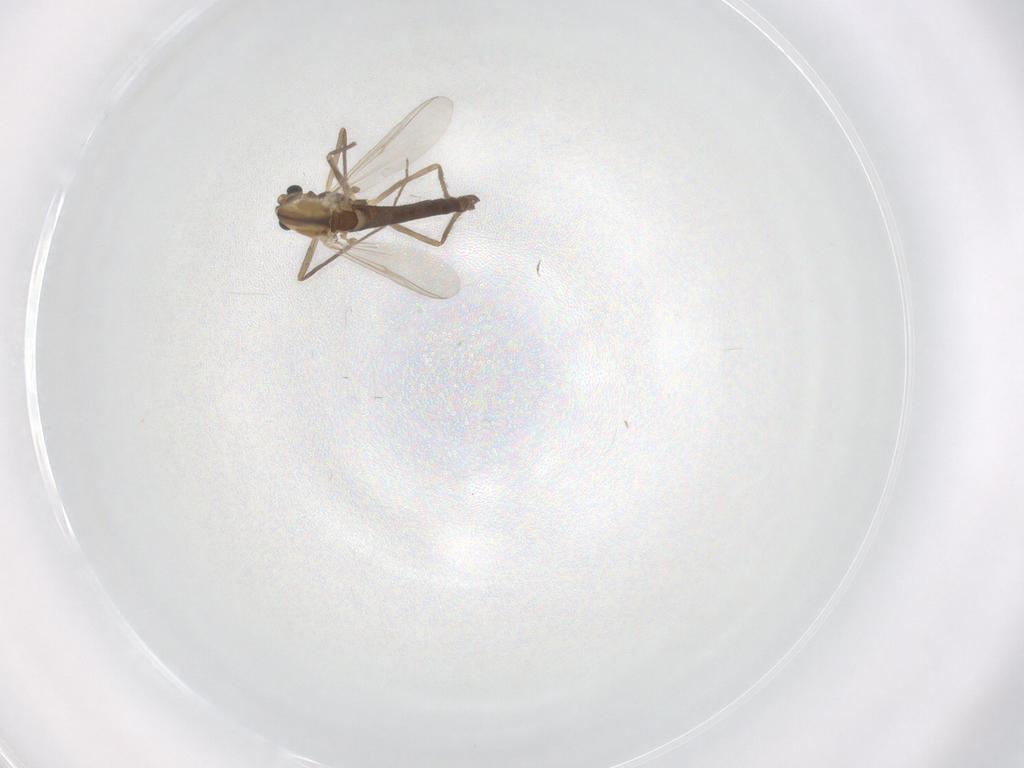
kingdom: Animalia
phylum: Arthropoda
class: Insecta
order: Diptera
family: Chironomidae
